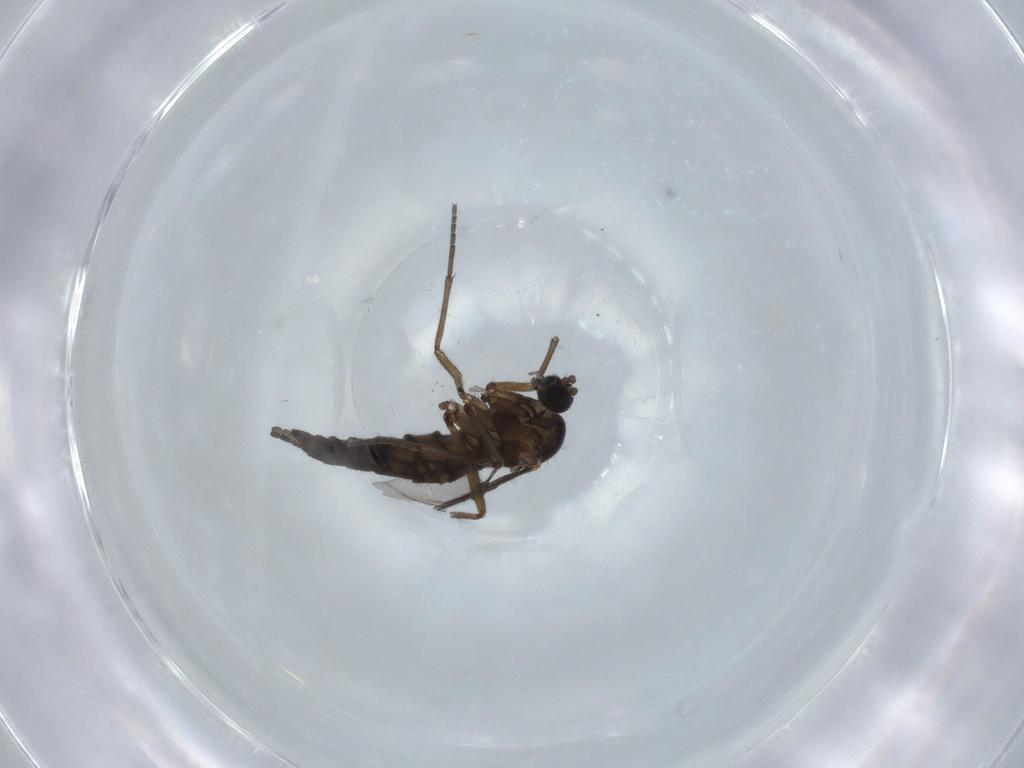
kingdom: Animalia
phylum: Arthropoda
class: Insecta
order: Diptera
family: Sciaridae
